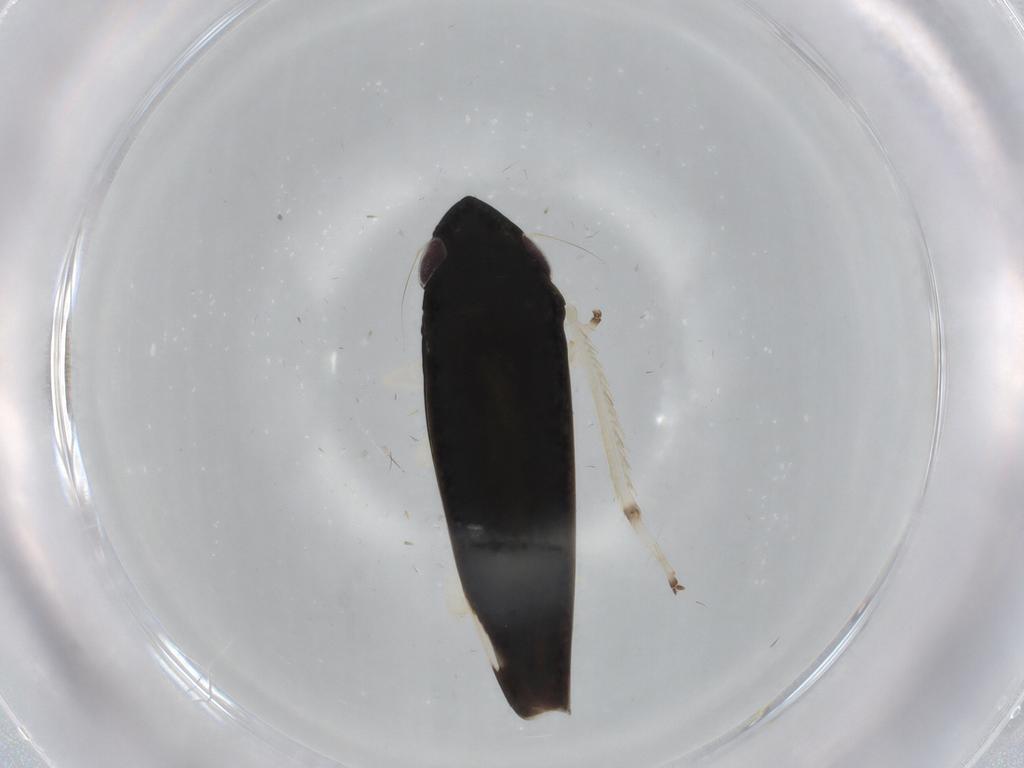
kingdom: Animalia
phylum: Arthropoda
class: Insecta
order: Hemiptera
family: Cicadellidae
